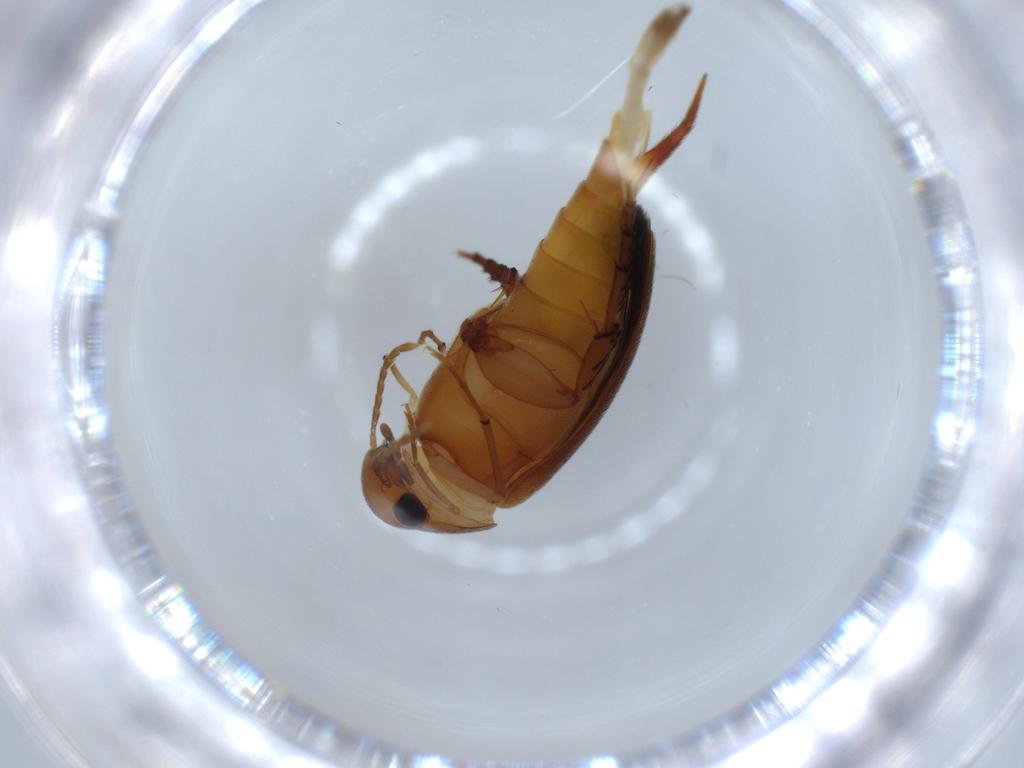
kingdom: Animalia
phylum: Arthropoda
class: Insecta
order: Coleoptera
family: Mordellidae
